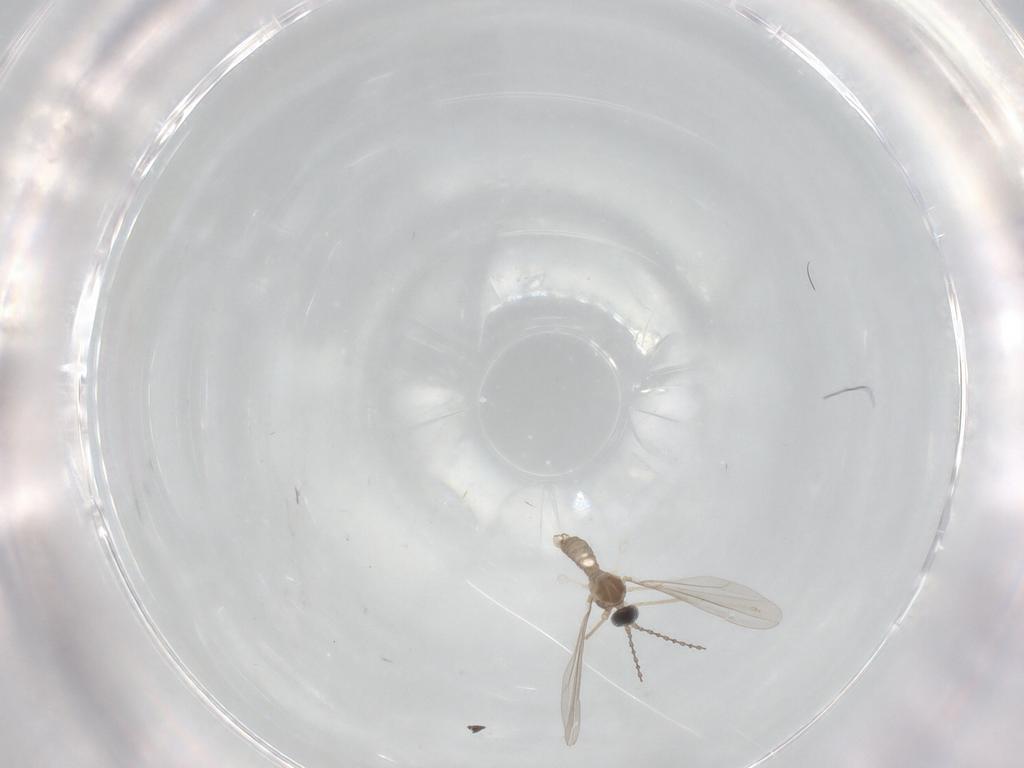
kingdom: Animalia
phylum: Arthropoda
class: Insecta
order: Diptera
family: Cecidomyiidae
